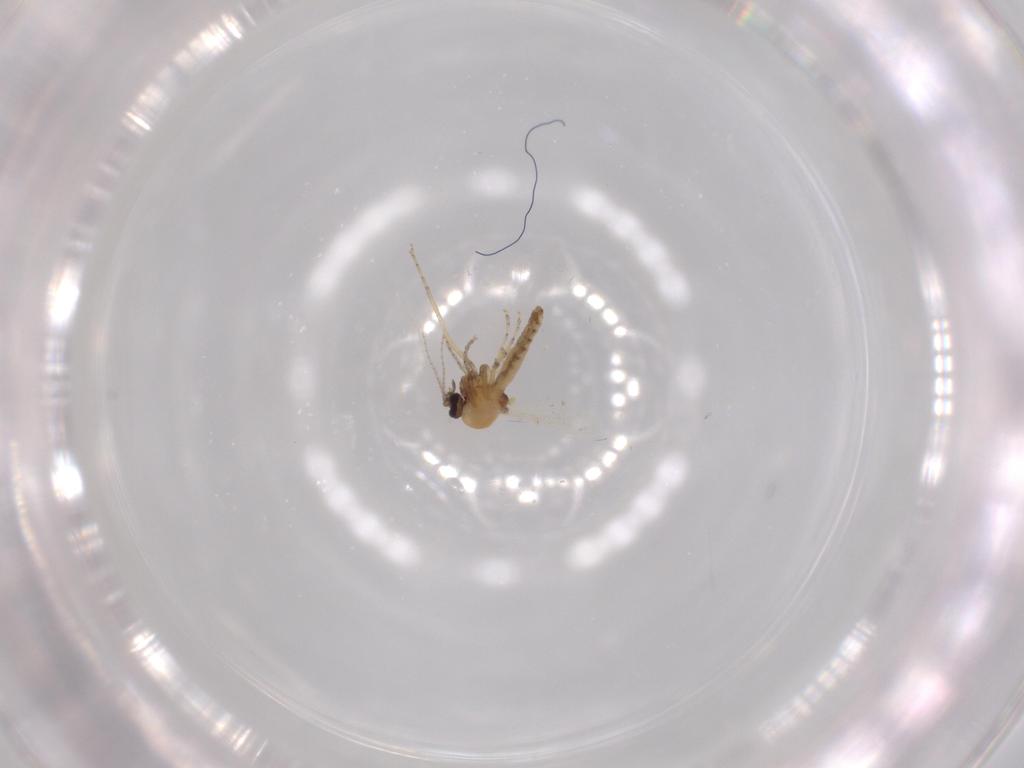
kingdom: Animalia
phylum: Arthropoda
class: Insecta
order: Diptera
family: Ceratopogonidae
